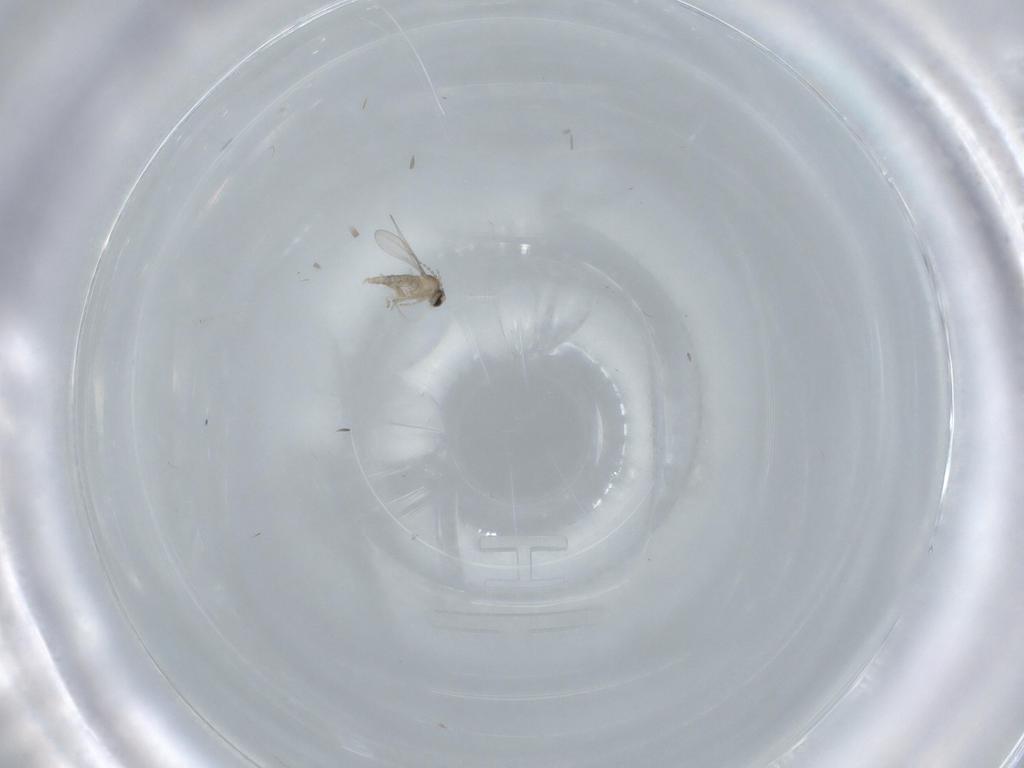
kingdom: Animalia
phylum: Arthropoda
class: Insecta
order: Diptera
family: Cecidomyiidae
